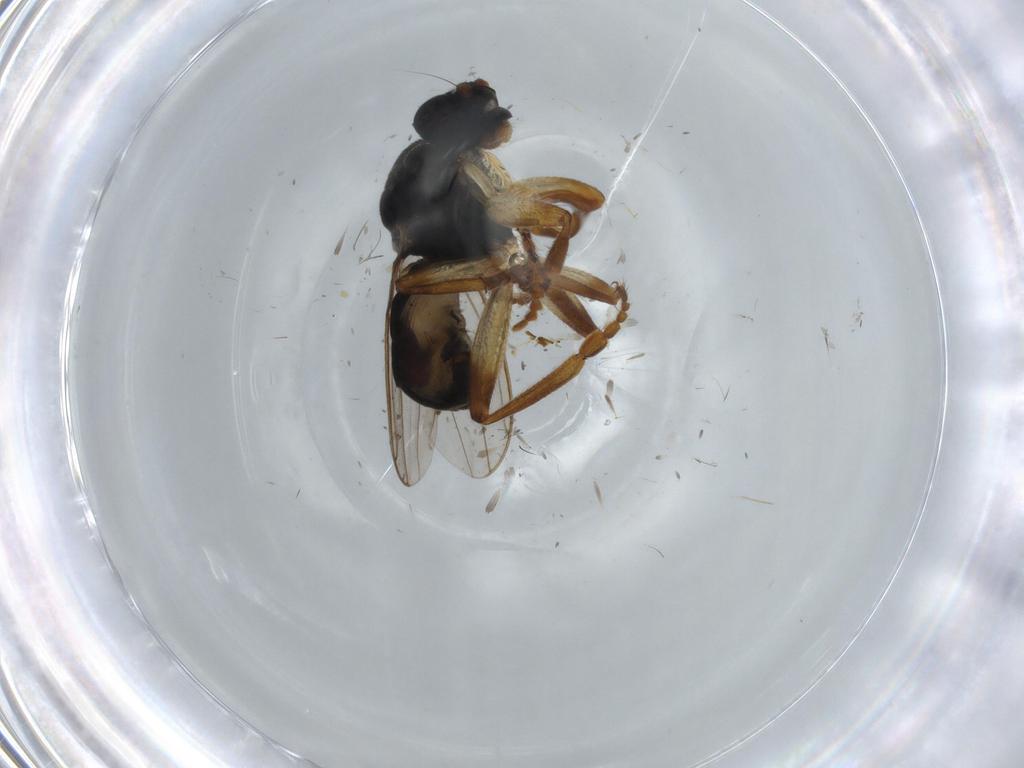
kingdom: Animalia
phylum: Arthropoda
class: Insecta
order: Diptera
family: Sphaeroceridae
